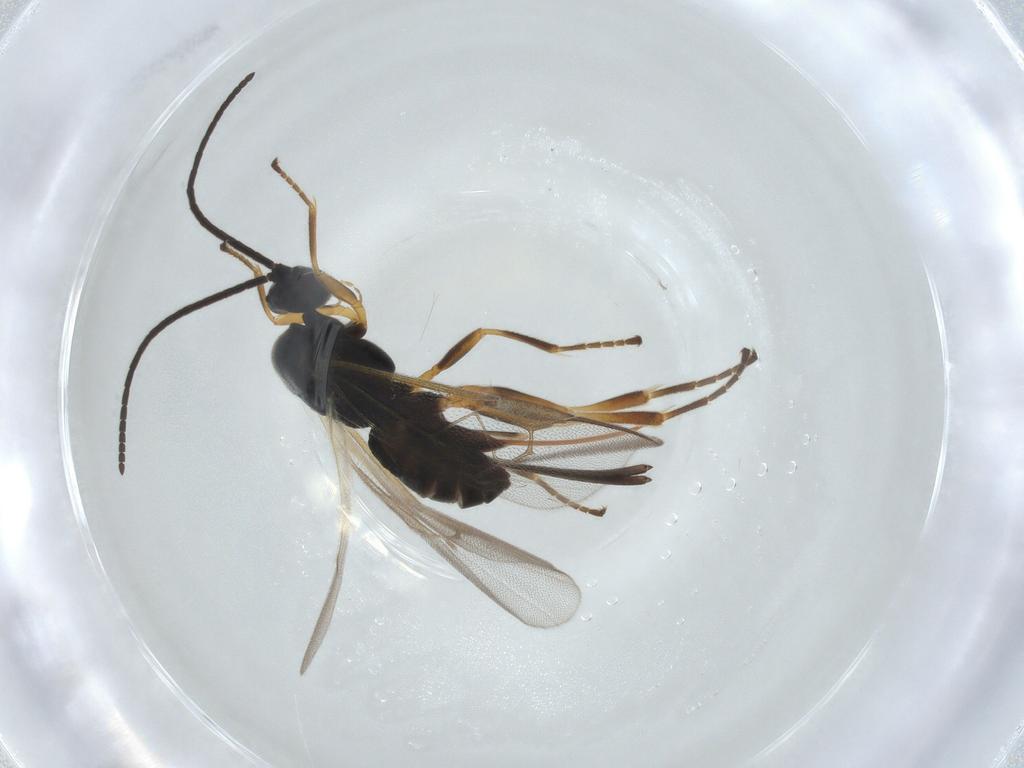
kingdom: Animalia
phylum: Arthropoda
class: Insecta
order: Hymenoptera
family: Braconidae
